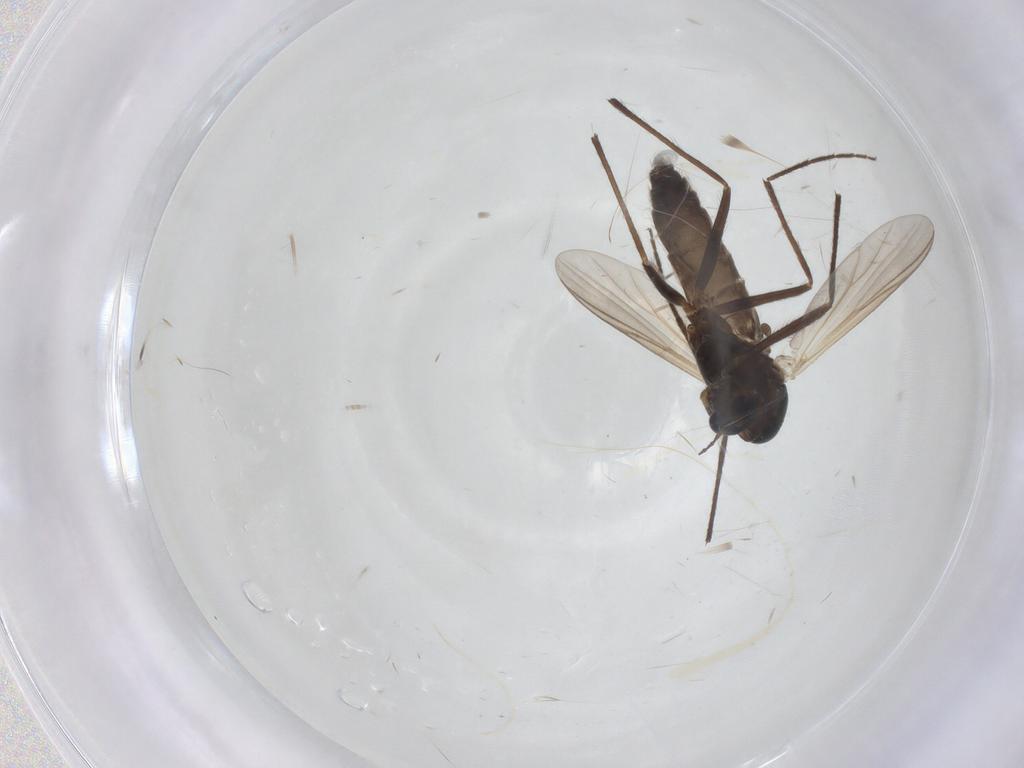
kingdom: Animalia
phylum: Arthropoda
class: Insecta
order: Diptera
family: Chironomidae
